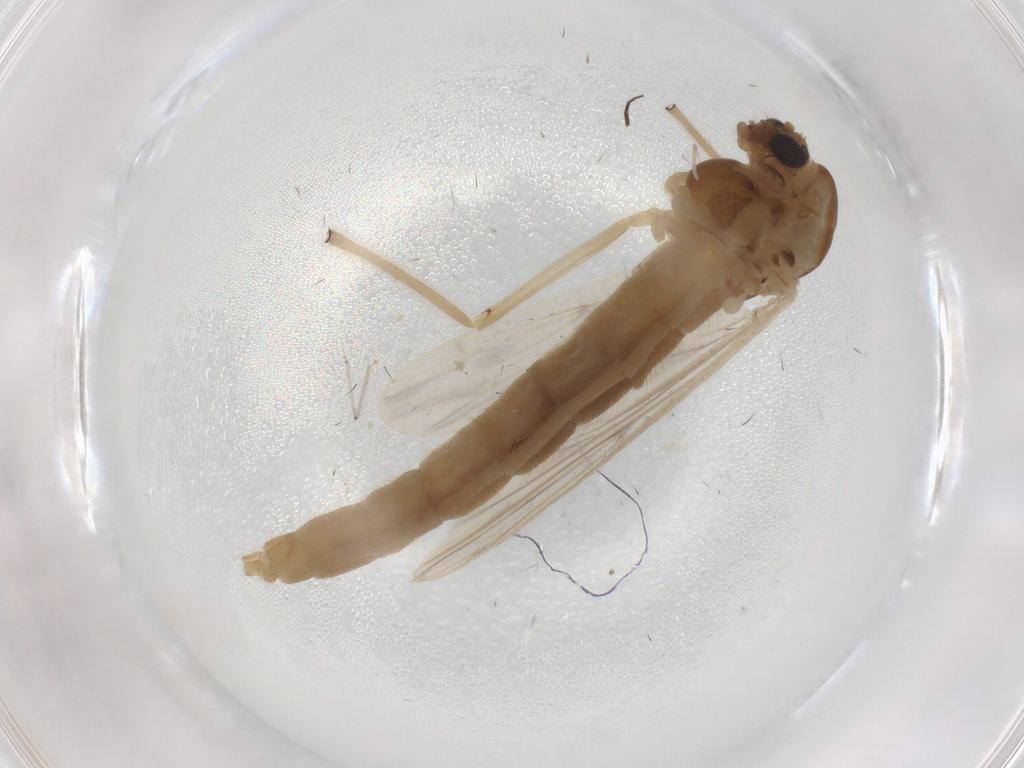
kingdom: Animalia
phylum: Arthropoda
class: Insecta
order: Diptera
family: Chironomidae
